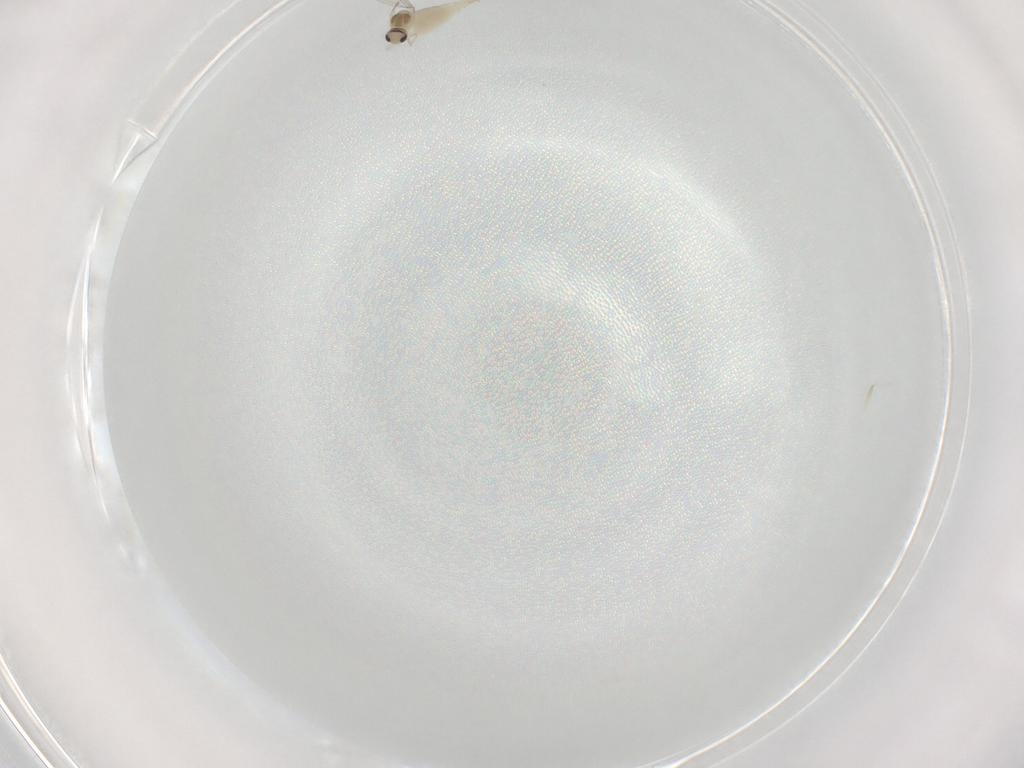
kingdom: Animalia
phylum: Arthropoda
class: Insecta
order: Diptera
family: Cecidomyiidae
